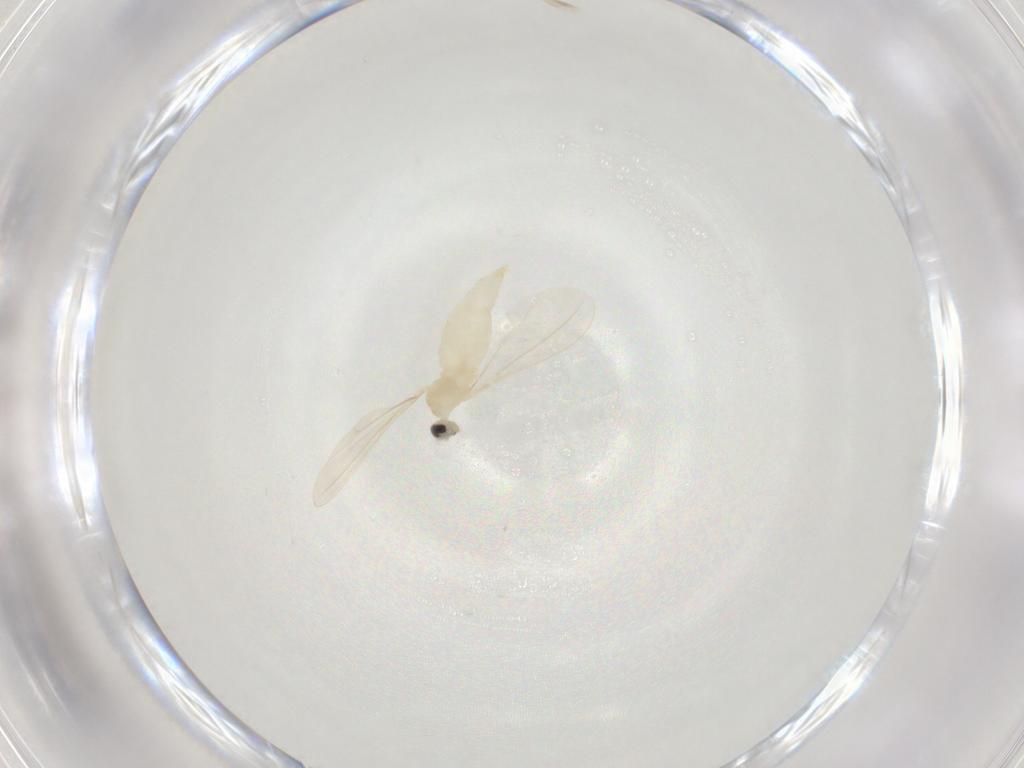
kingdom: Animalia
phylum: Arthropoda
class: Insecta
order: Diptera
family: Cecidomyiidae
